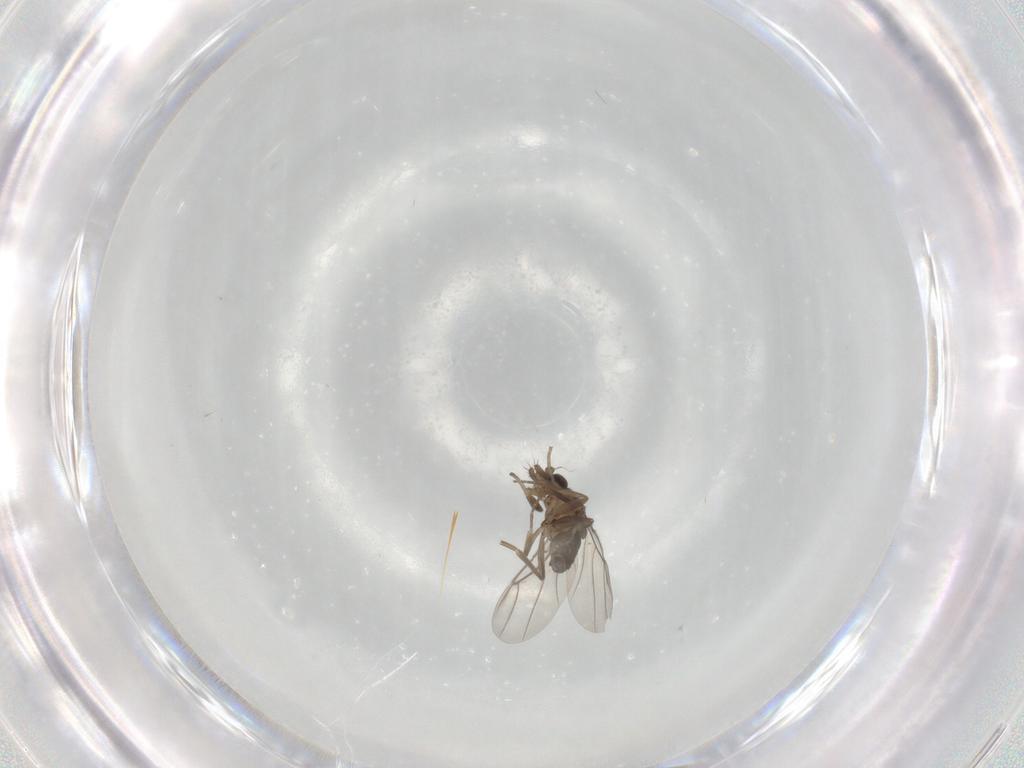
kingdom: Animalia
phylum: Arthropoda
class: Insecta
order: Diptera
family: Phoridae
